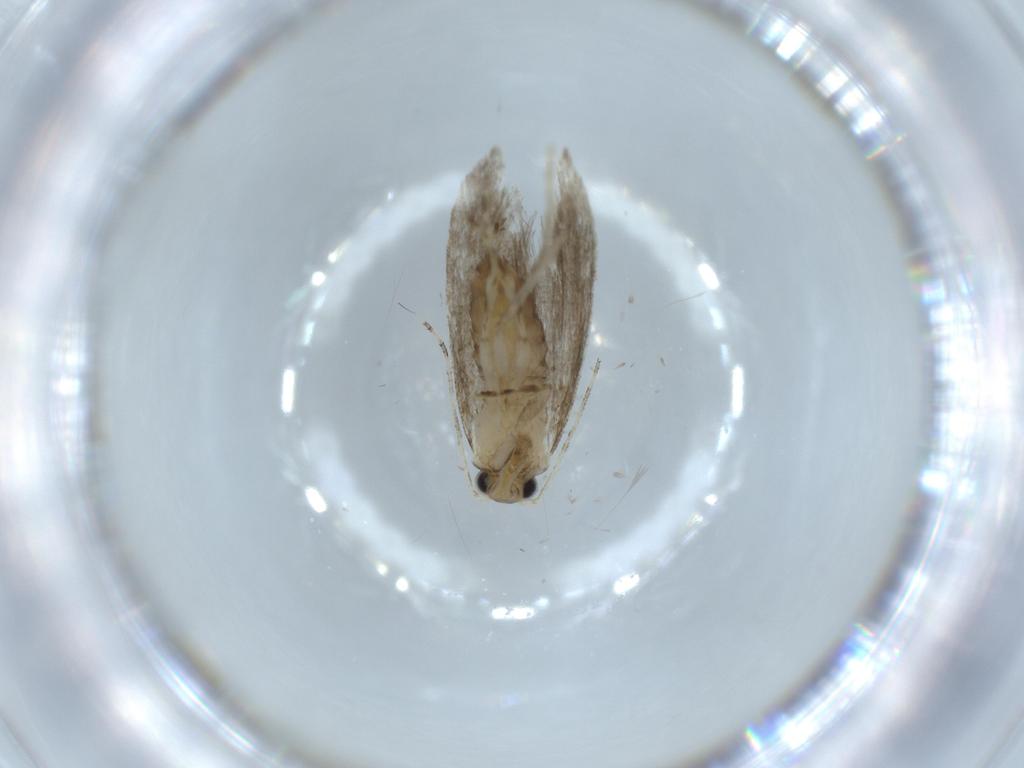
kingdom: Animalia
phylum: Arthropoda
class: Insecta
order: Lepidoptera
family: Tineidae
